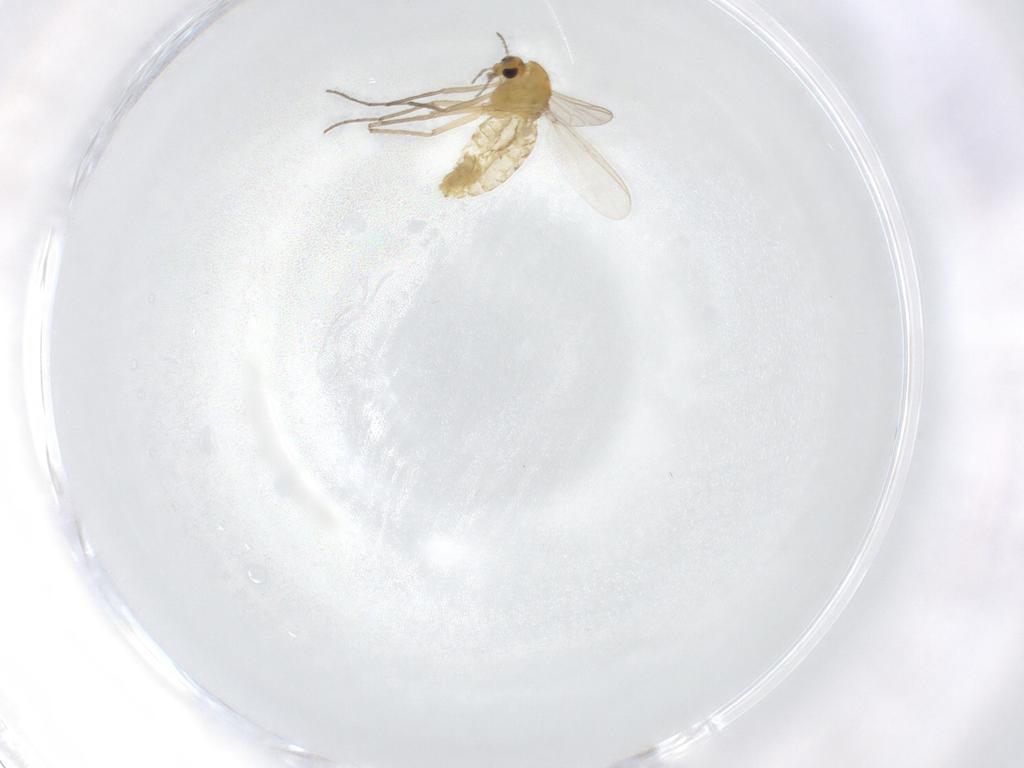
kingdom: Animalia
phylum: Arthropoda
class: Insecta
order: Diptera
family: Chironomidae
